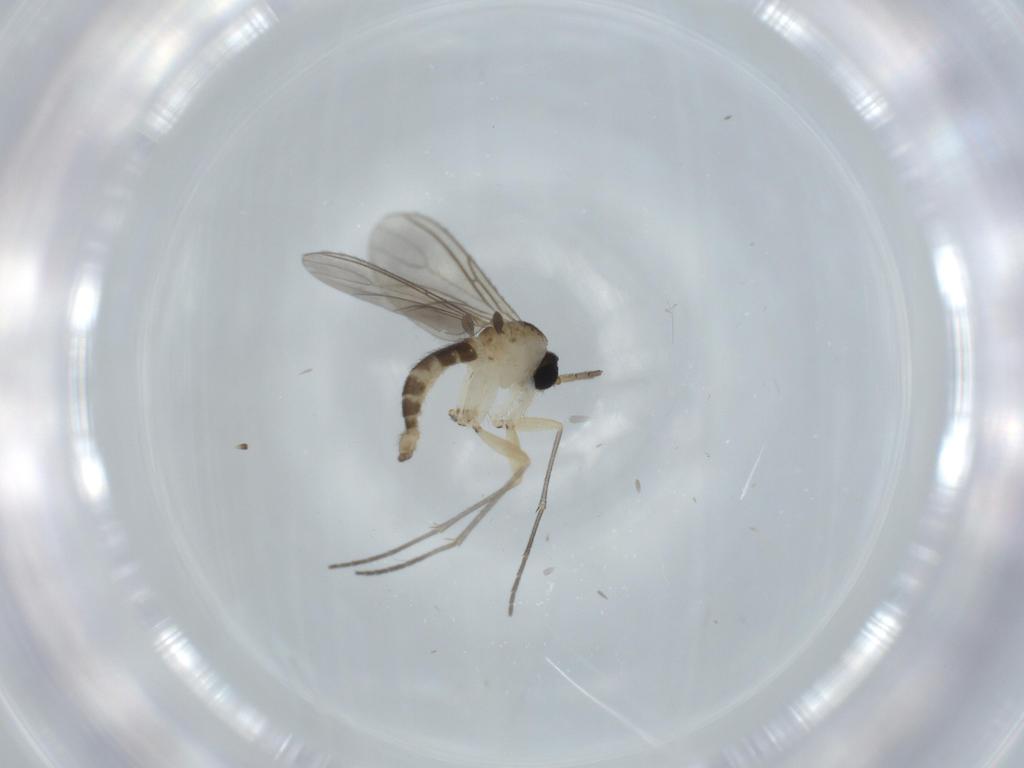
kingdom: Animalia
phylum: Arthropoda
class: Insecta
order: Diptera
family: Sciaridae
